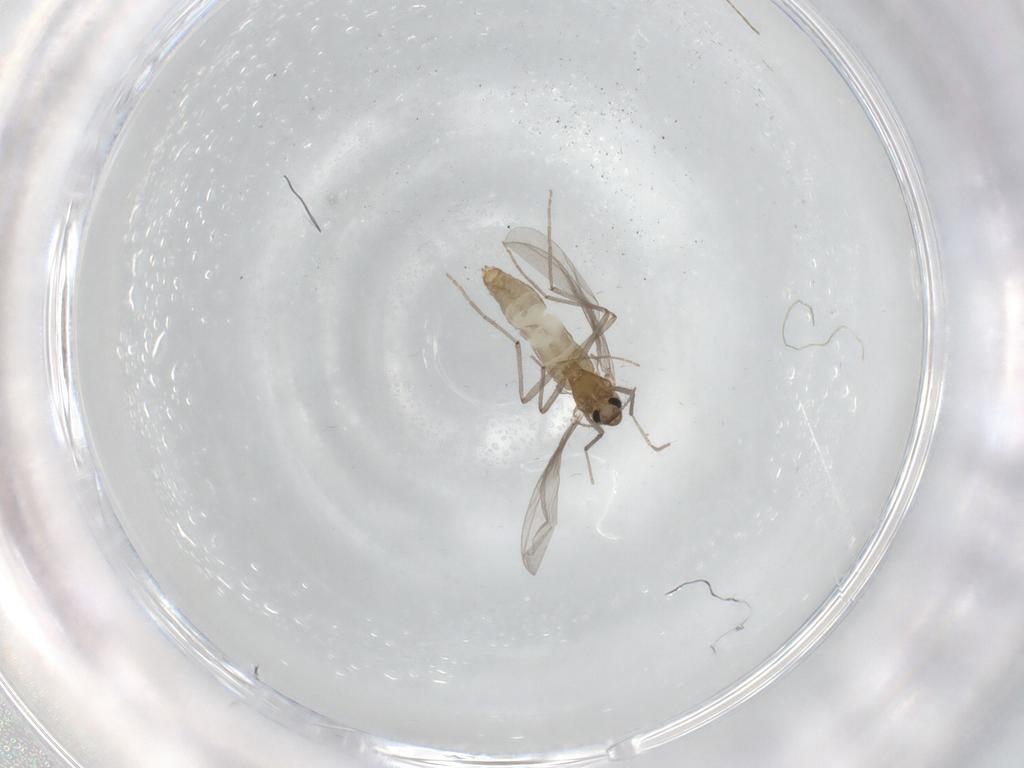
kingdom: Animalia
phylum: Arthropoda
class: Insecta
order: Diptera
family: Chironomidae
